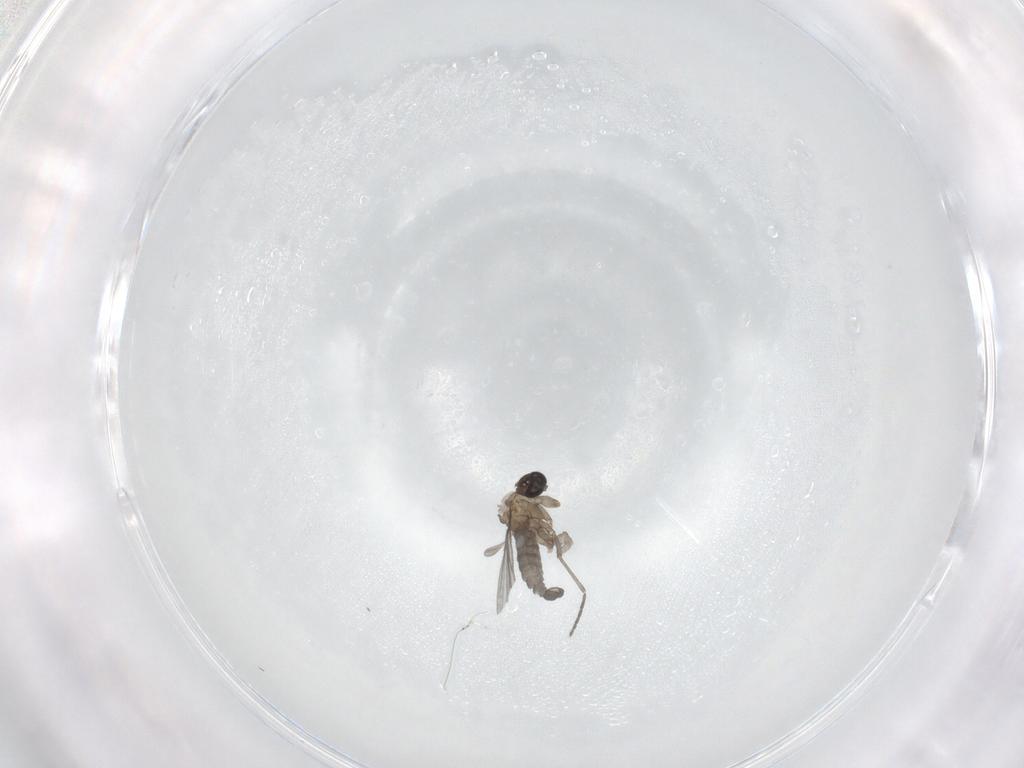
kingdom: Animalia
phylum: Arthropoda
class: Insecta
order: Diptera
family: Sciaridae
